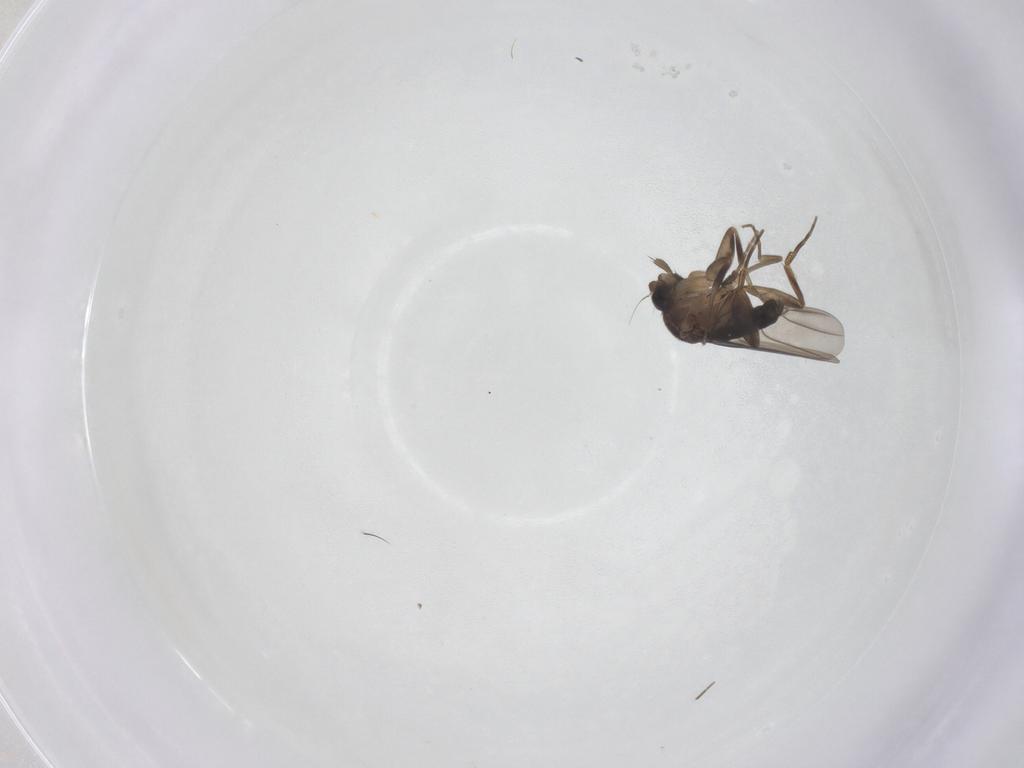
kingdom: Animalia
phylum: Arthropoda
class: Insecta
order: Diptera
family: Phoridae
